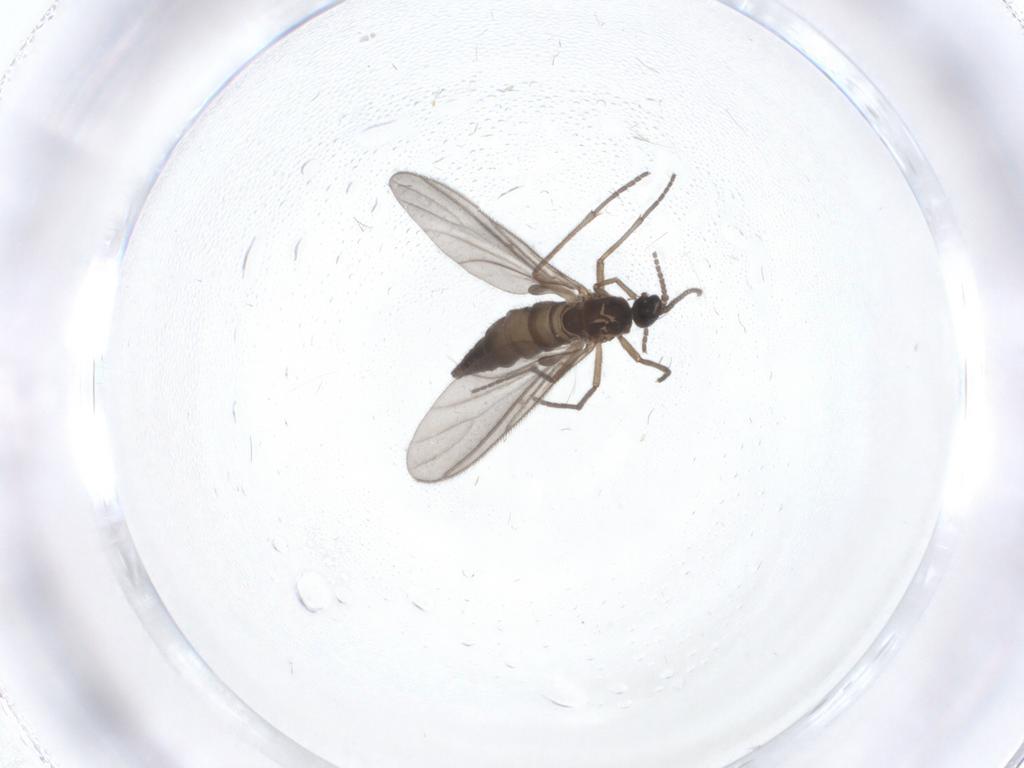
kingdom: Animalia
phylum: Arthropoda
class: Insecta
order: Diptera
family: Sciaridae
